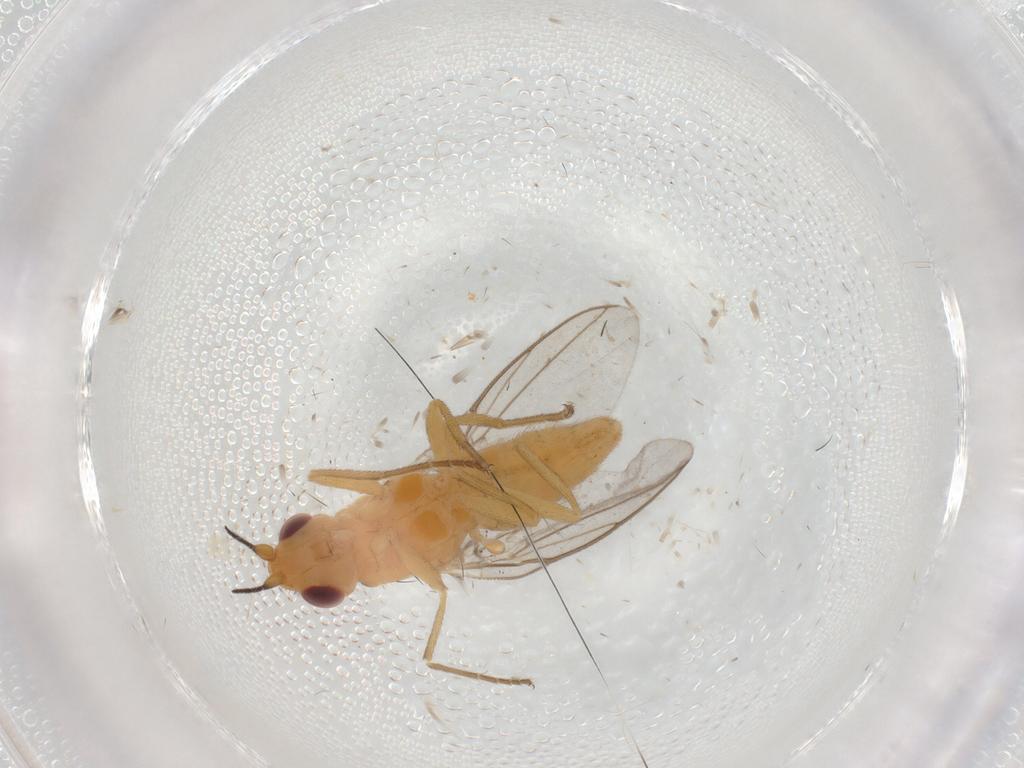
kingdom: Animalia
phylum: Arthropoda
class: Insecta
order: Diptera
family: Chloropidae
